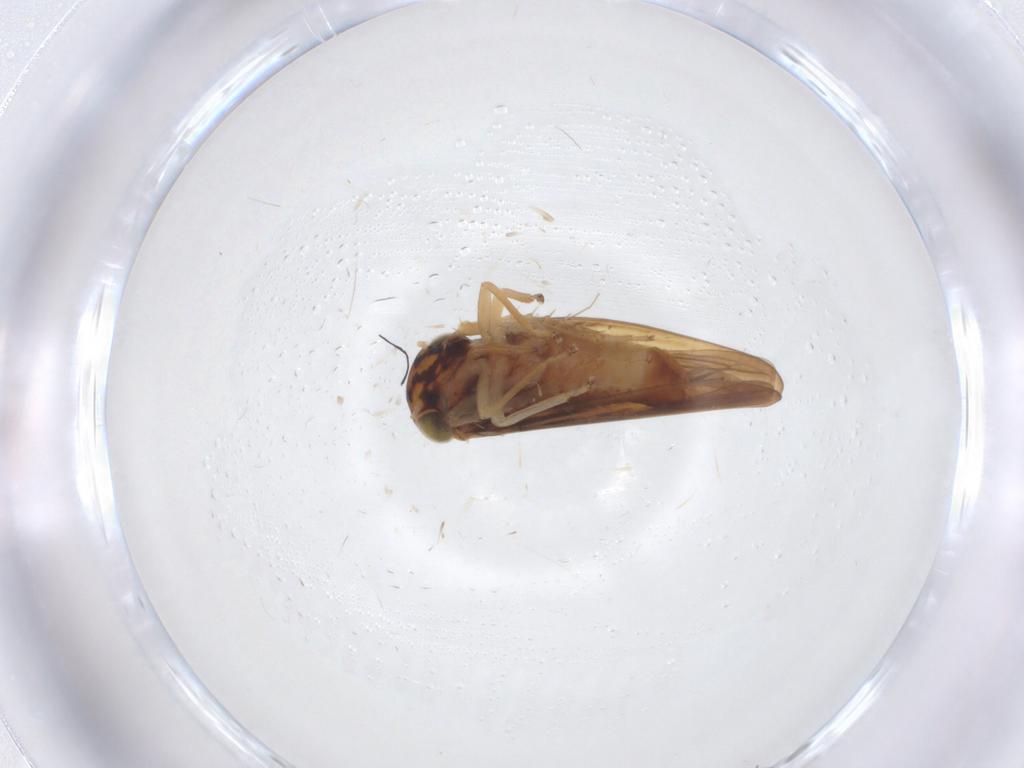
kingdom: Animalia
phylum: Arthropoda
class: Insecta
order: Hemiptera
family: Cicadellidae
